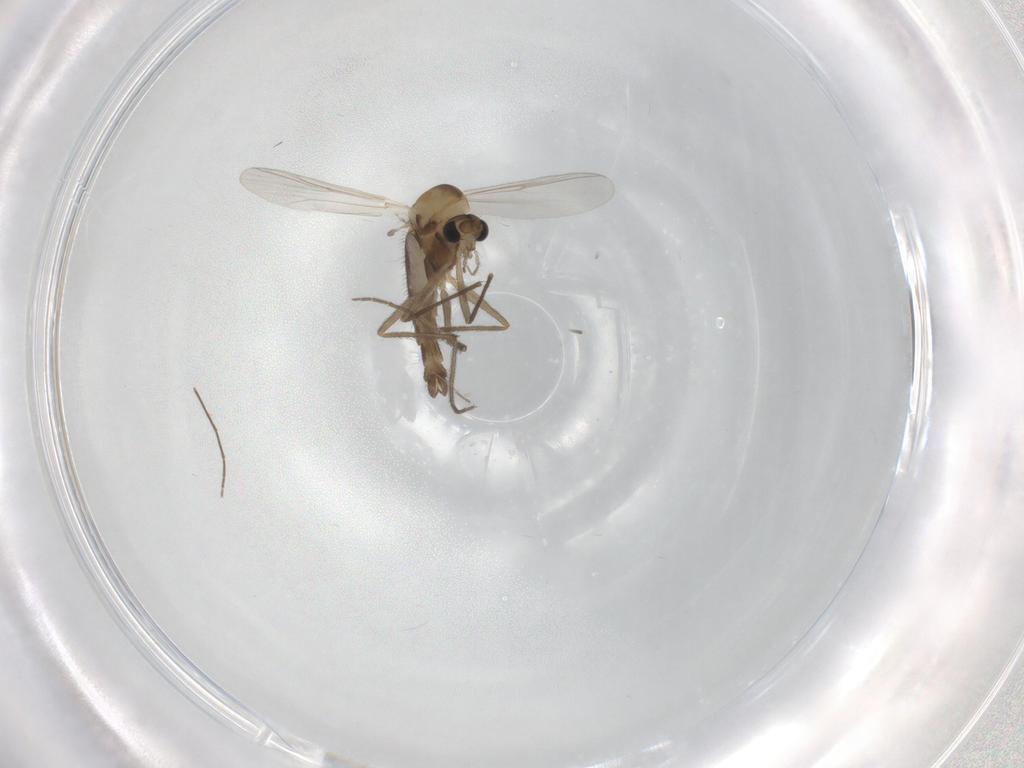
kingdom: Animalia
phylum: Arthropoda
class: Insecta
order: Diptera
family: Chironomidae
